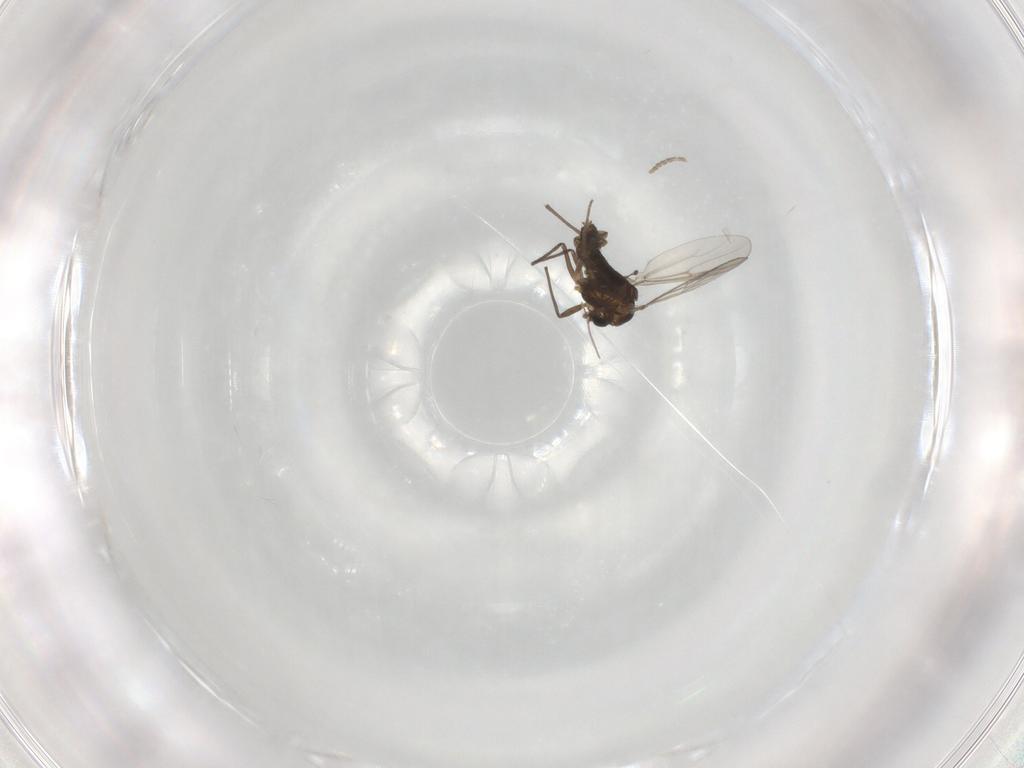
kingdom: Animalia
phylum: Arthropoda
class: Insecta
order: Diptera
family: Chironomidae
